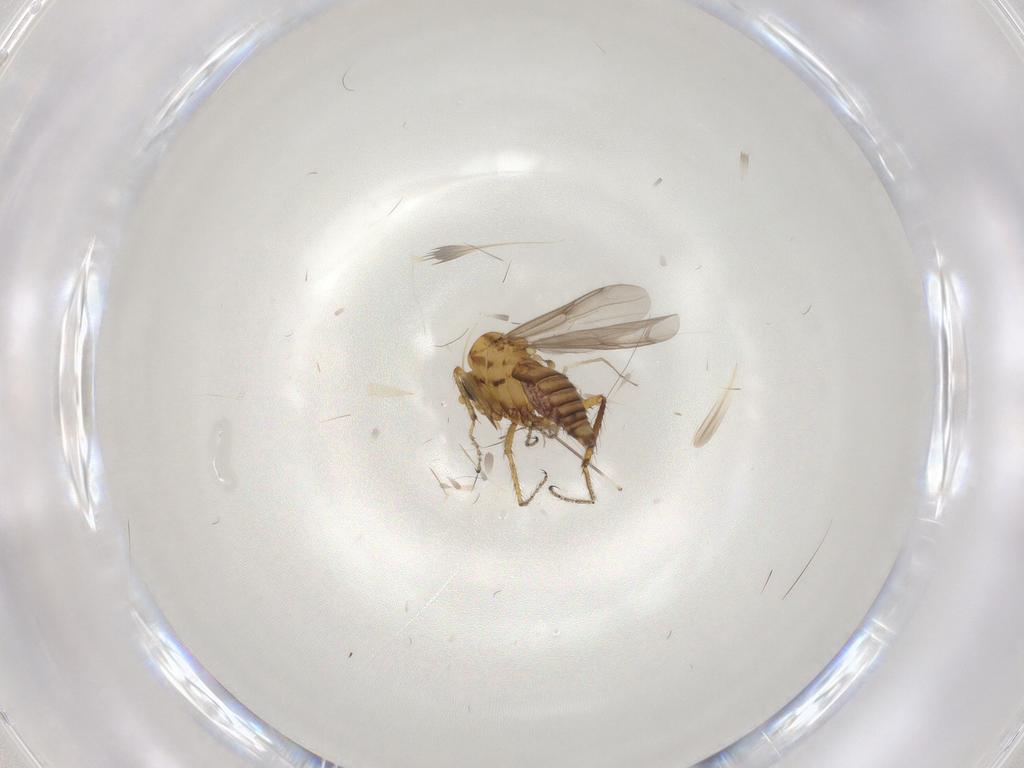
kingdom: Animalia
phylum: Arthropoda
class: Insecta
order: Diptera
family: Ceratopogonidae
